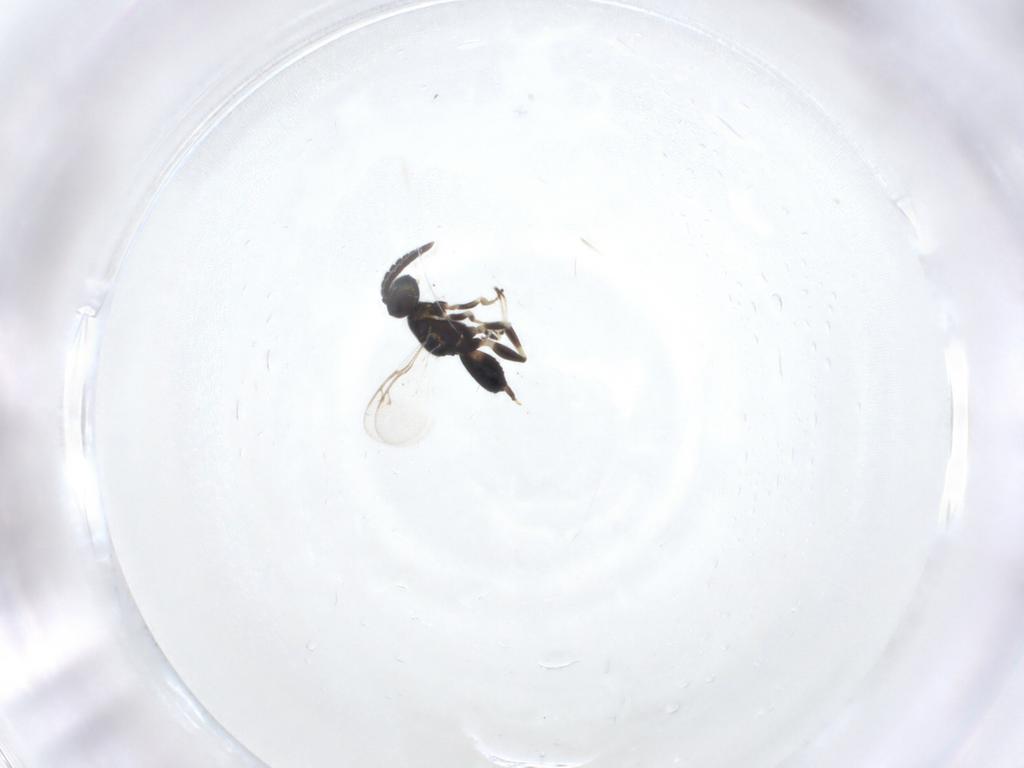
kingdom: Animalia
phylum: Arthropoda
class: Insecta
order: Hymenoptera
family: Eupelmidae
